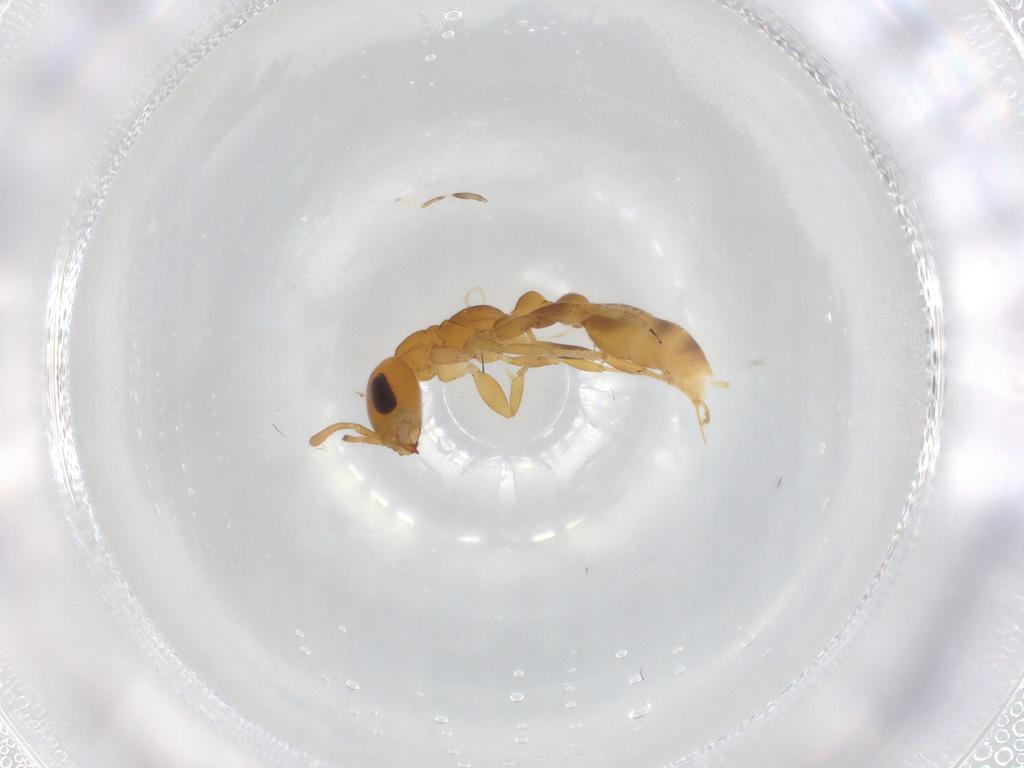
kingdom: Animalia
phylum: Arthropoda
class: Insecta
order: Hymenoptera
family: Formicidae
